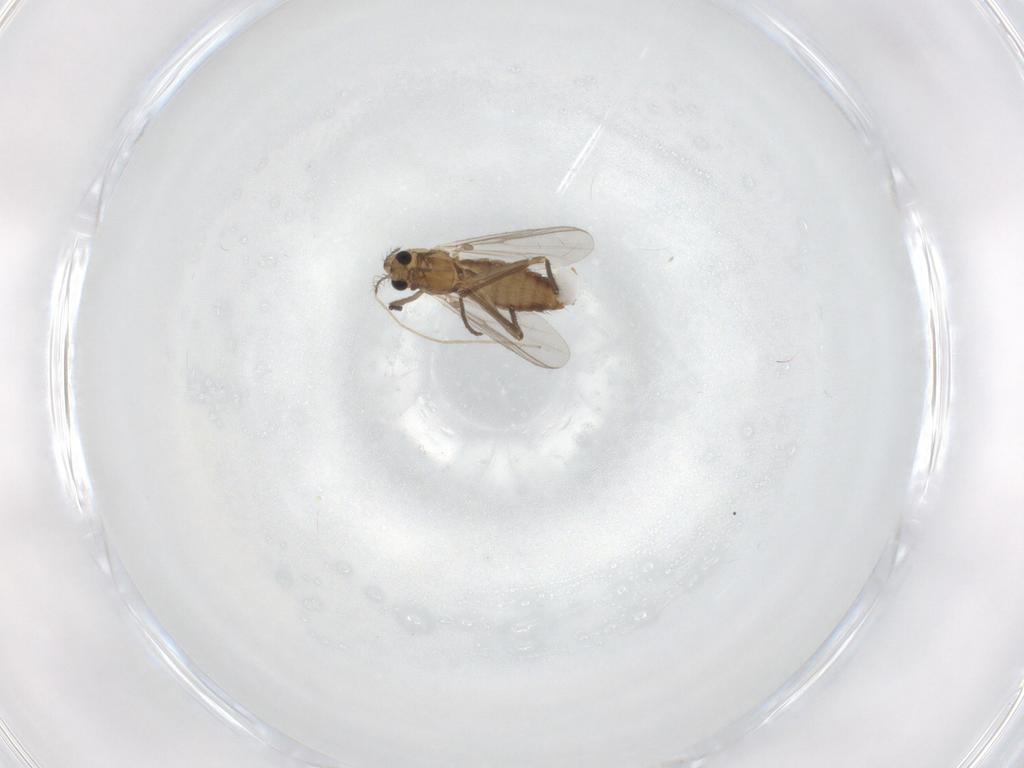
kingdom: Animalia
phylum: Arthropoda
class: Insecta
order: Diptera
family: Chironomidae
